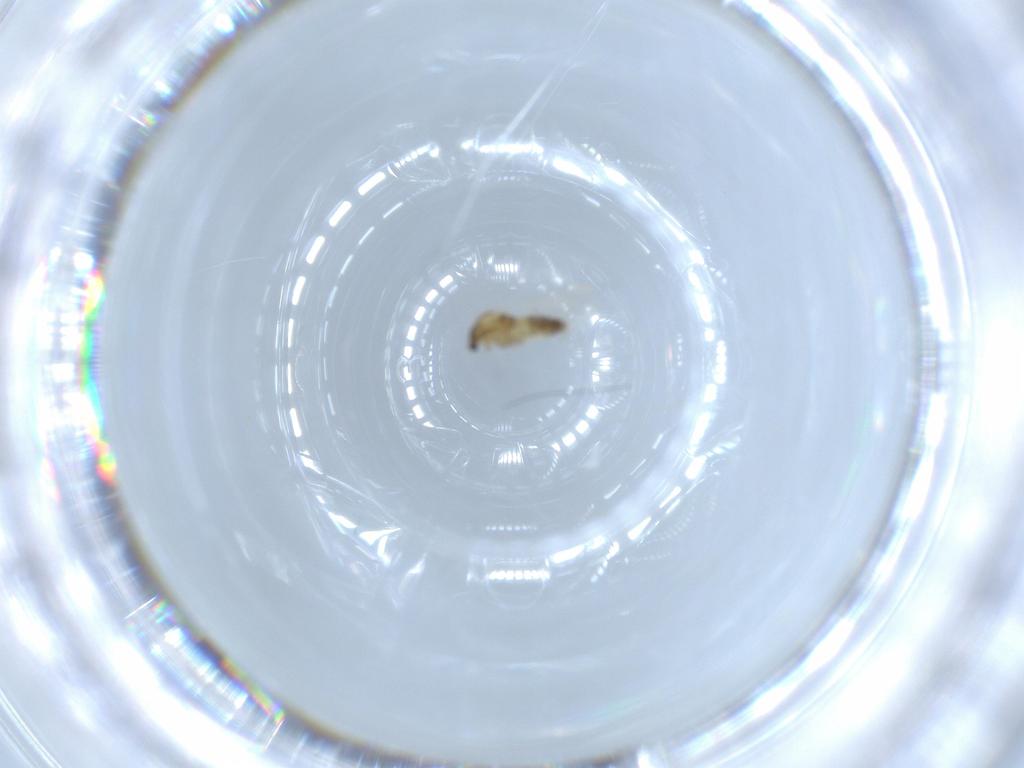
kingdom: Animalia
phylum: Arthropoda
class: Insecta
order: Diptera
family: Chironomidae
